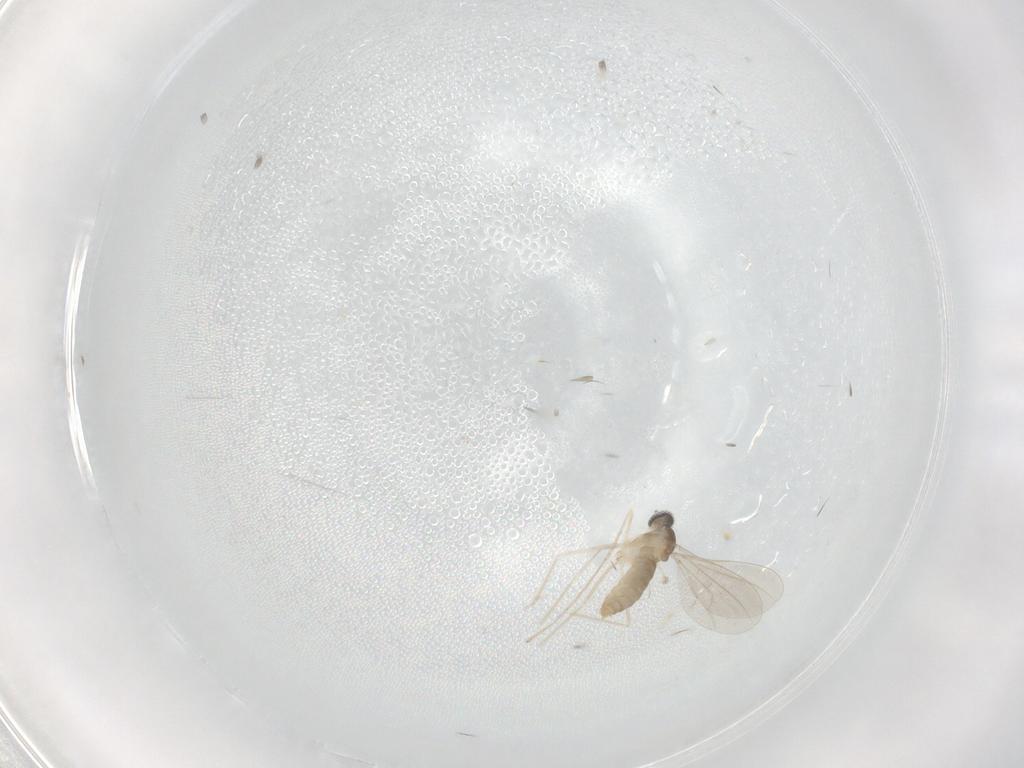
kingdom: Animalia
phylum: Arthropoda
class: Insecta
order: Diptera
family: Cecidomyiidae
